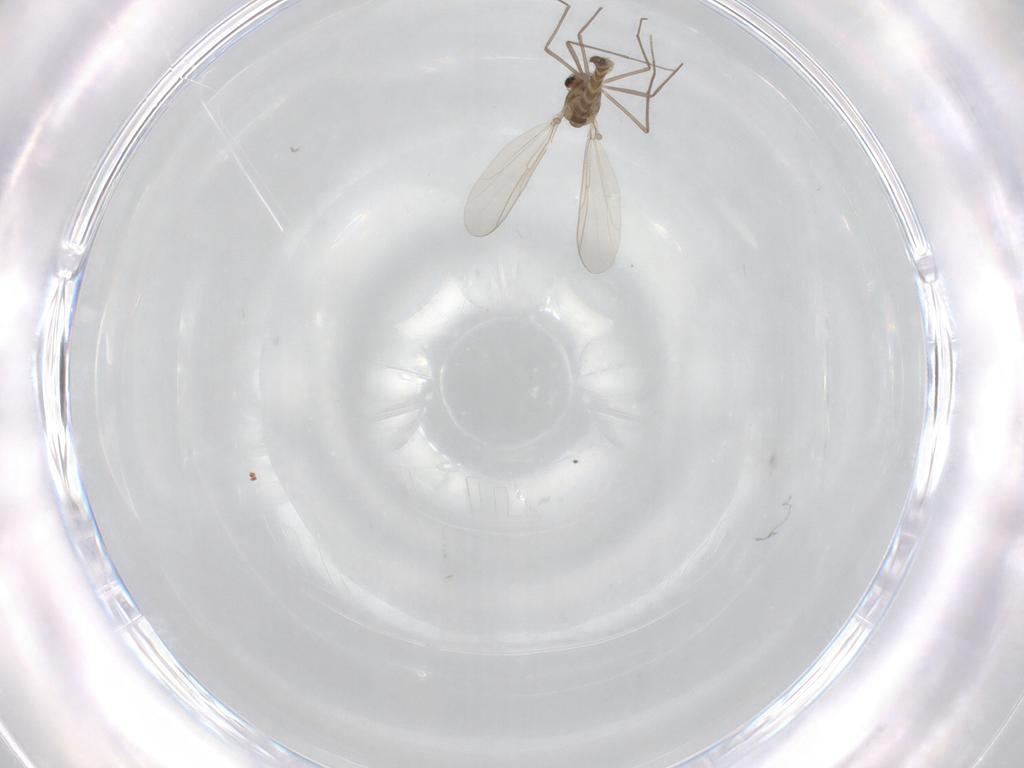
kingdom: Animalia
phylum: Arthropoda
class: Insecta
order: Diptera
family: Chironomidae
